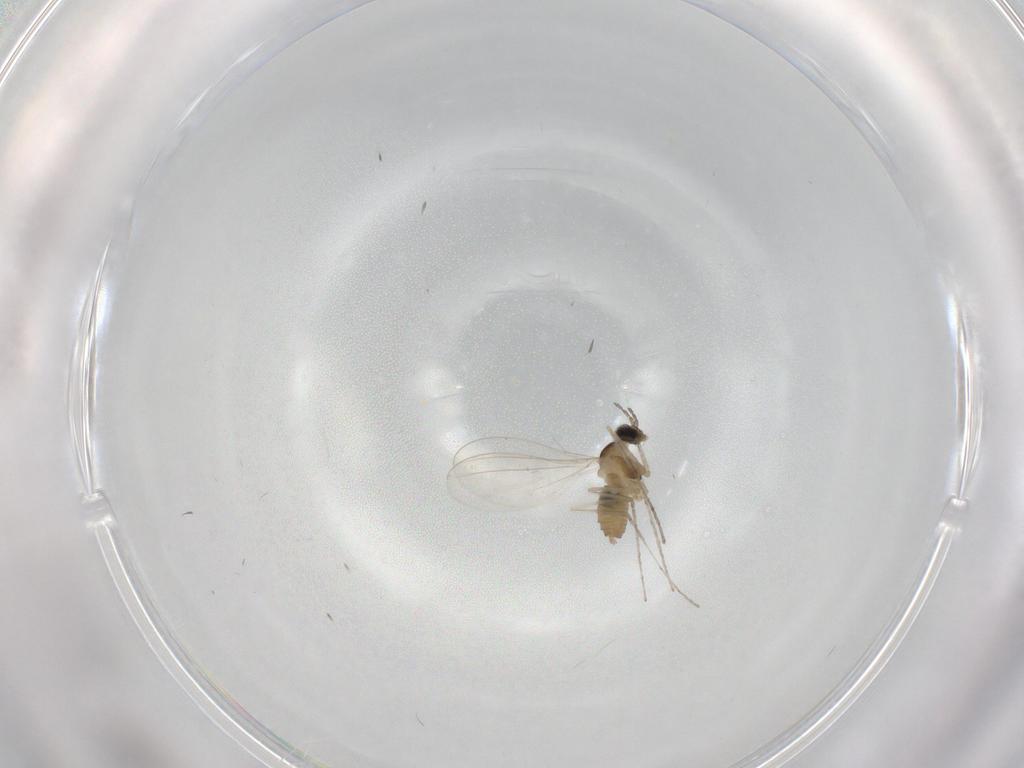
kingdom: Animalia
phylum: Arthropoda
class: Insecta
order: Diptera
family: Cecidomyiidae
